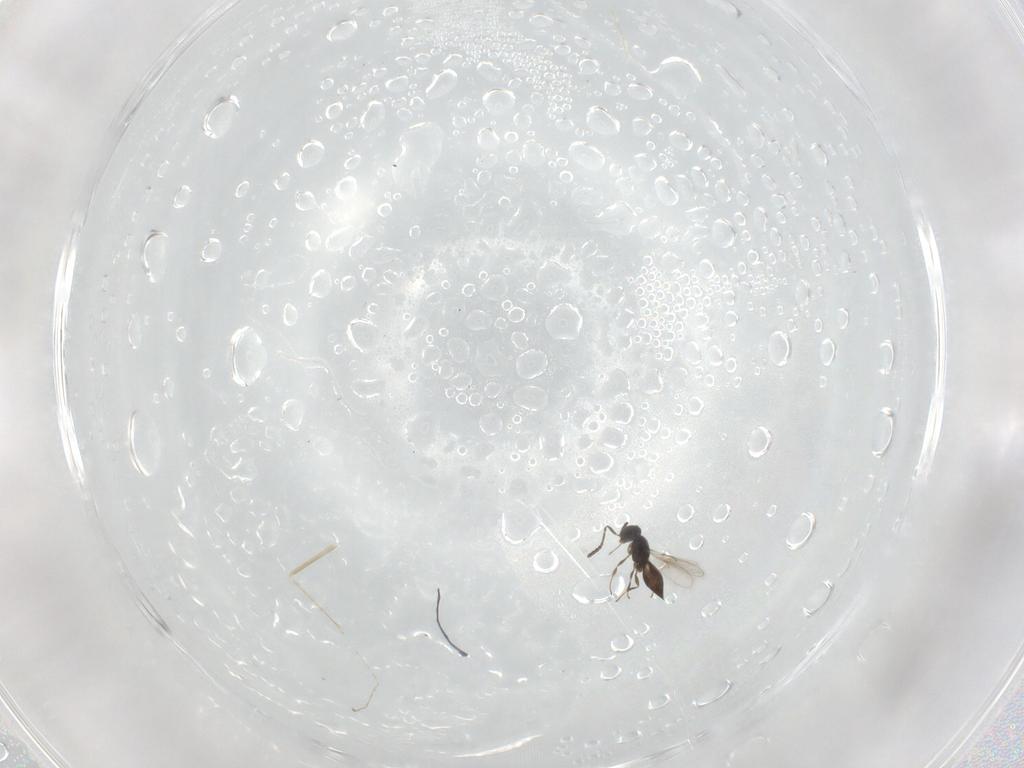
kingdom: Animalia
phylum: Arthropoda
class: Insecta
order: Hymenoptera
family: Scelionidae
